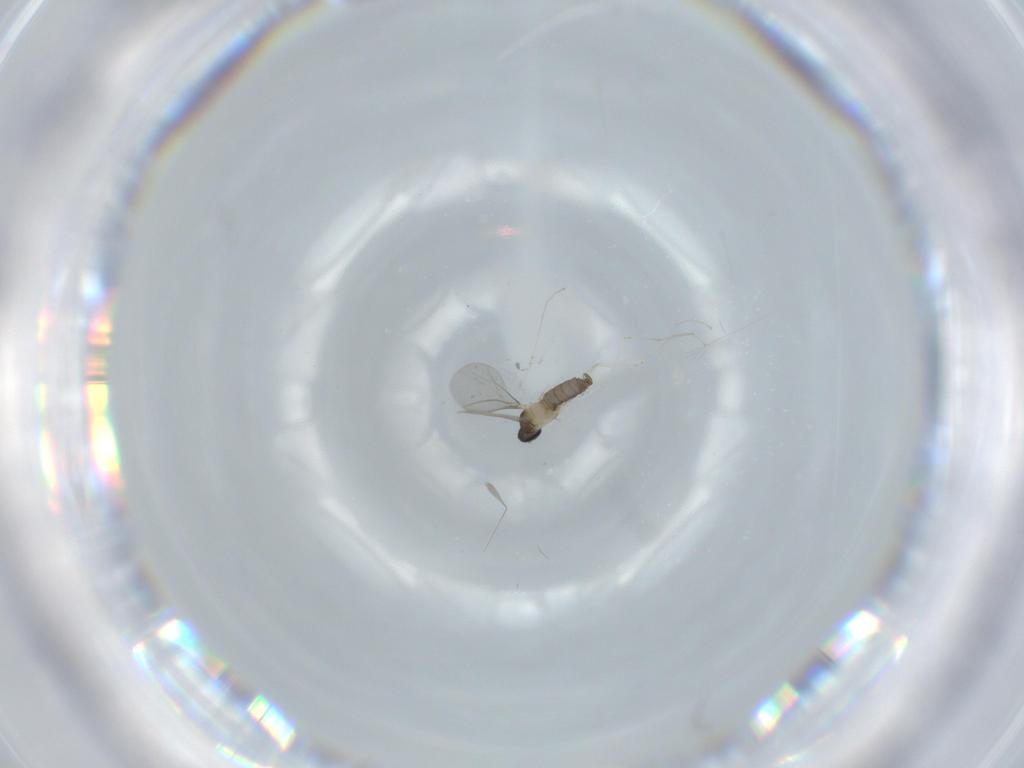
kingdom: Animalia
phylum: Arthropoda
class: Insecta
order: Diptera
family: Cecidomyiidae
